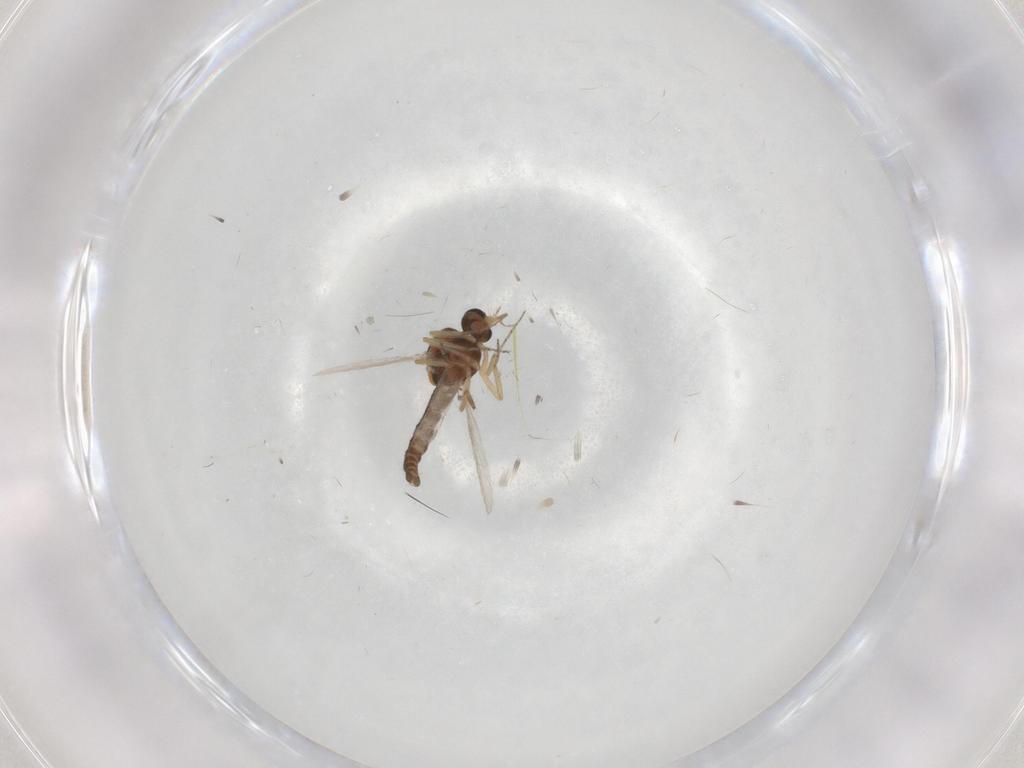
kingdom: Animalia
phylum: Arthropoda
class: Insecta
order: Diptera
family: Ceratopogonidae
